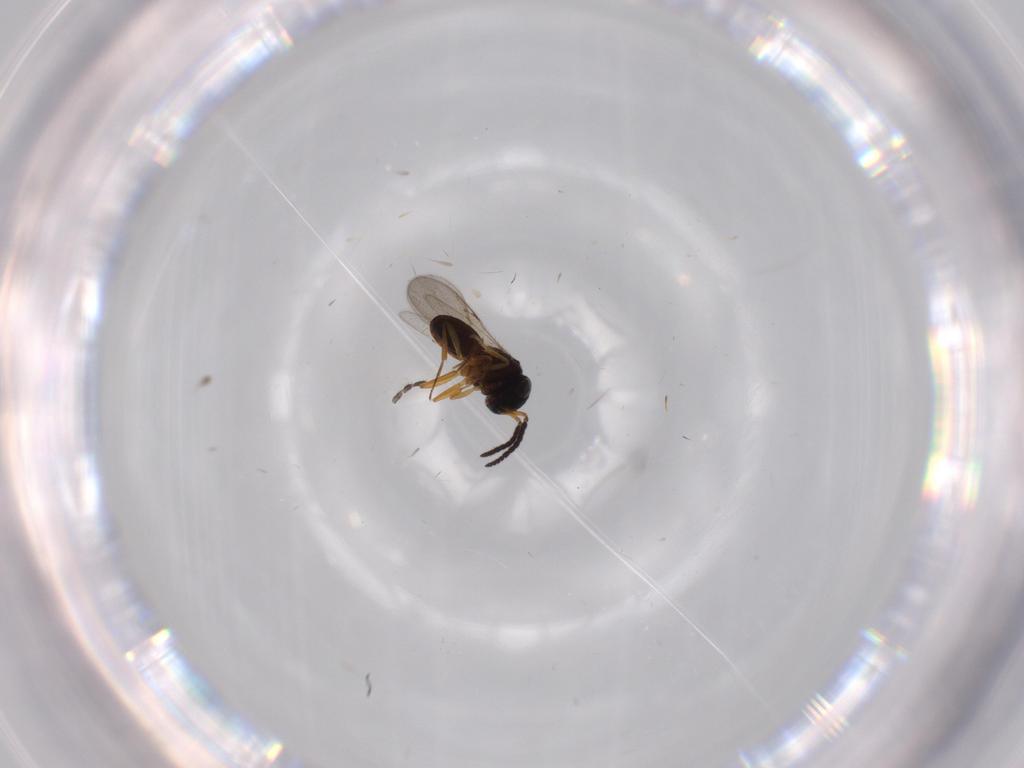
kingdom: Animalia
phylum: Arthropoda
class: Insecta
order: Coleoptera
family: Curculionidae
